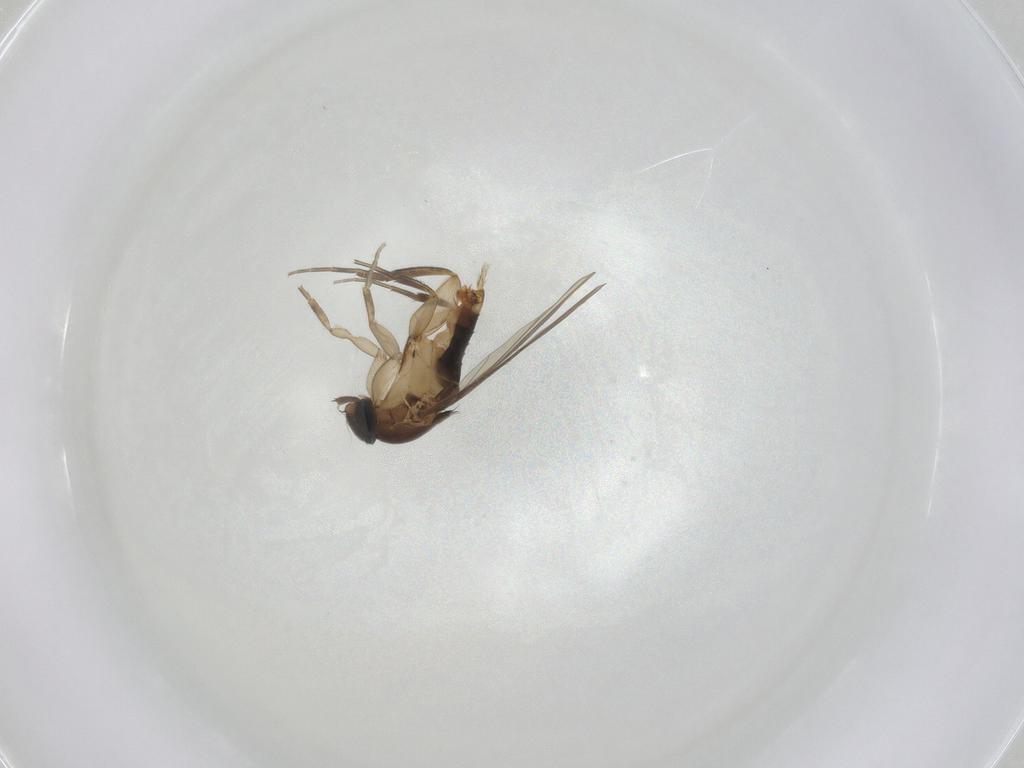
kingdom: Animalia
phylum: Arthropoda
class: Insecta
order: Diptera
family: Phoridae
